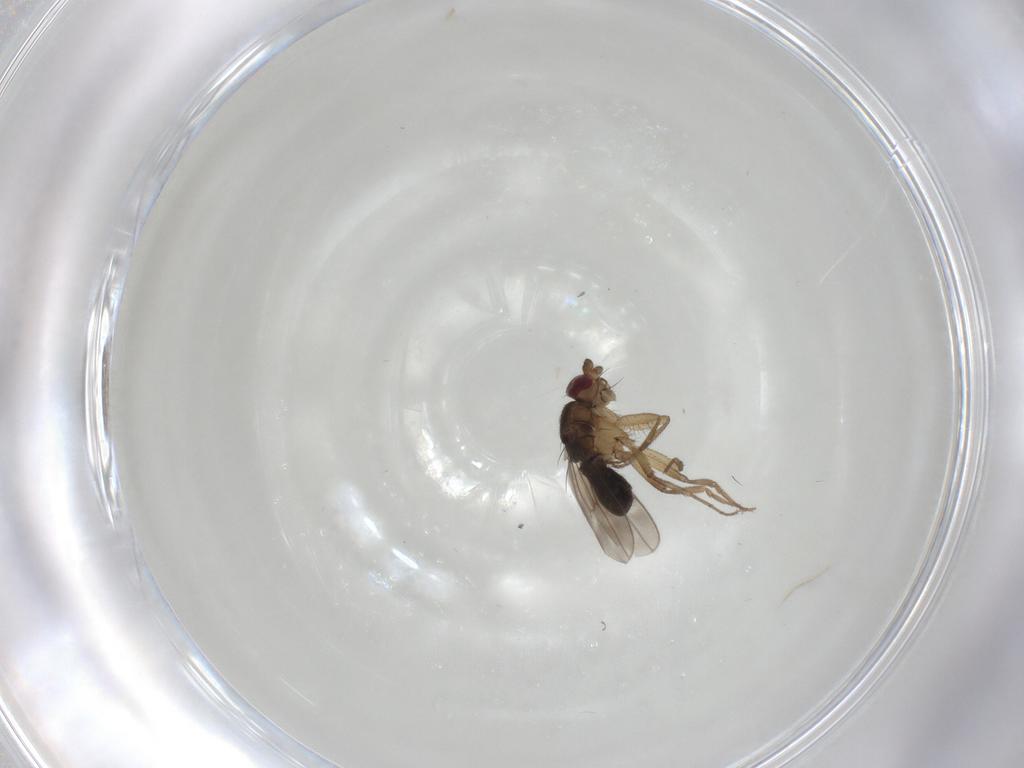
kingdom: Animalia
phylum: Arthropoda
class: Insecta
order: Diptera
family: Sphaeroceridae
